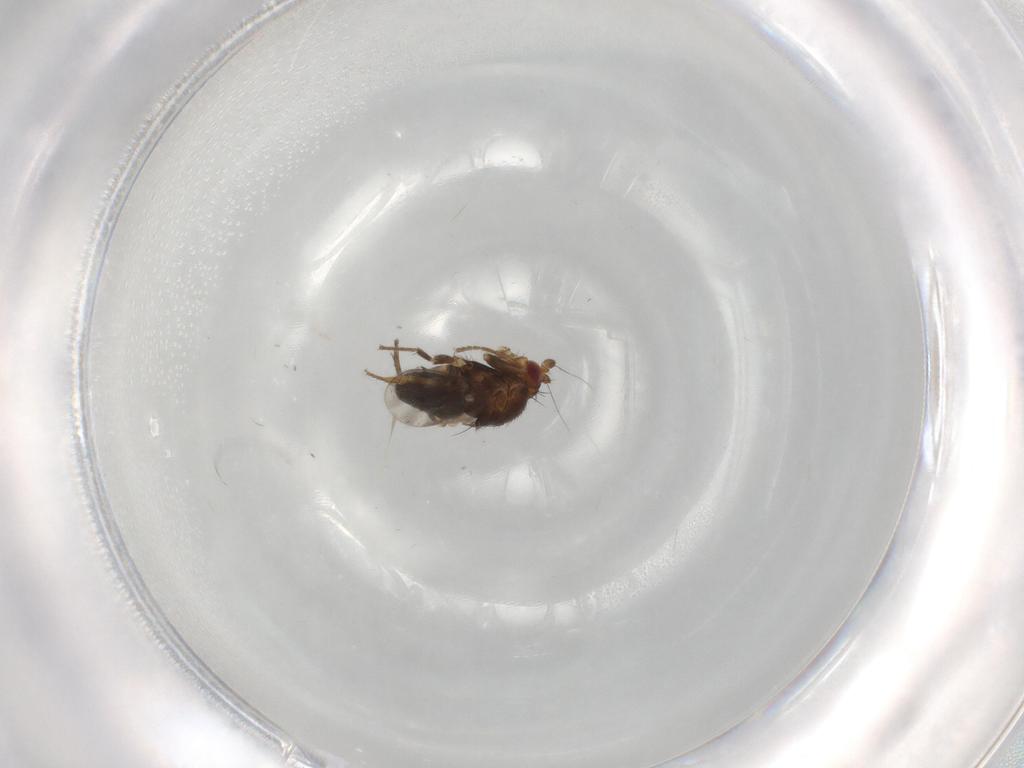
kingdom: Animalia
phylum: Arthropoda
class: Insecta
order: Diptera
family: Sphaeroceridae
